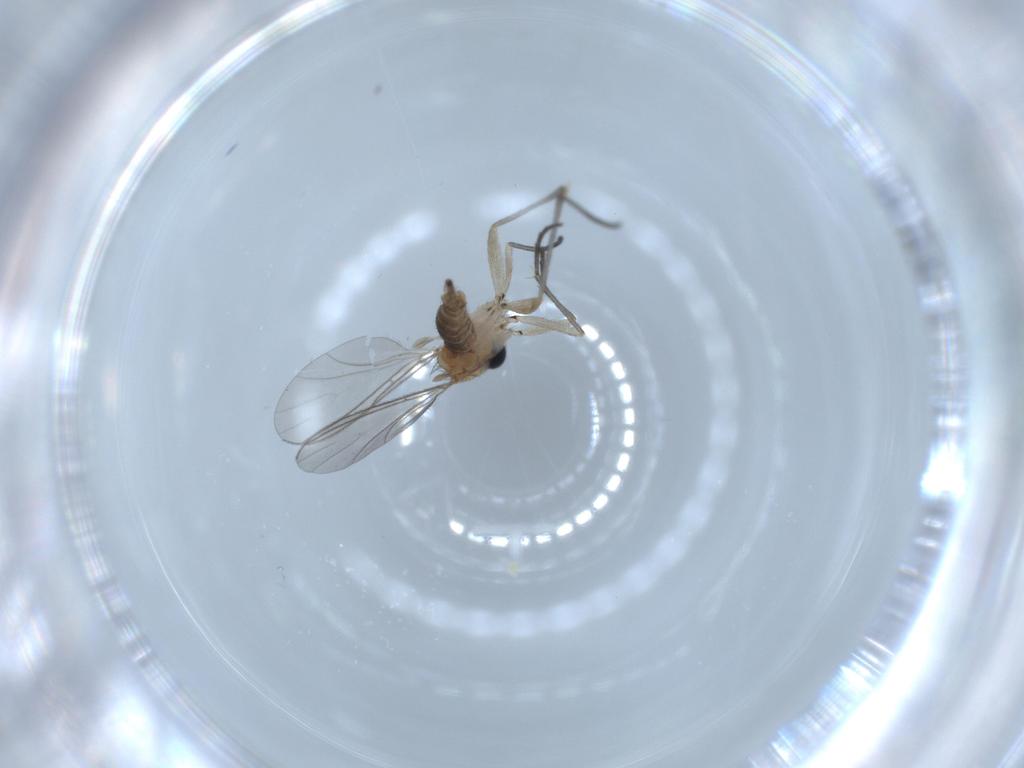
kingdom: Animalia
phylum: Arthropoda
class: Insecta
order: Diptera
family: Sciaridae
